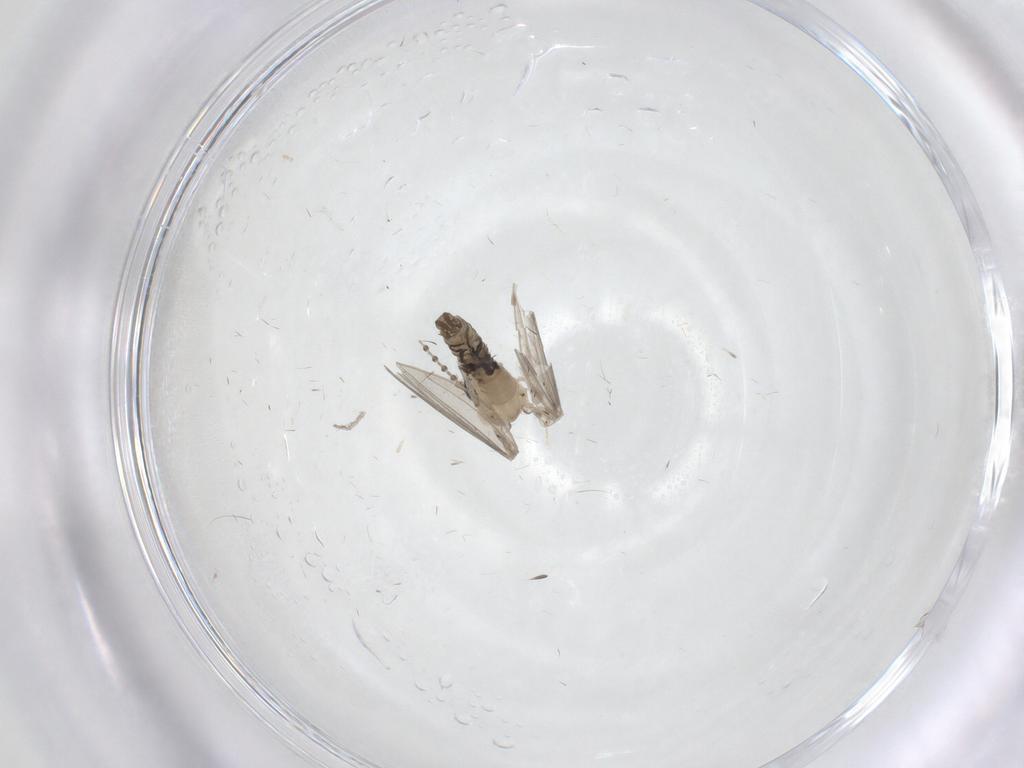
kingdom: Animalia
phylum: Arthropoda
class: Insecta
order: Diptera
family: Psychodidae
